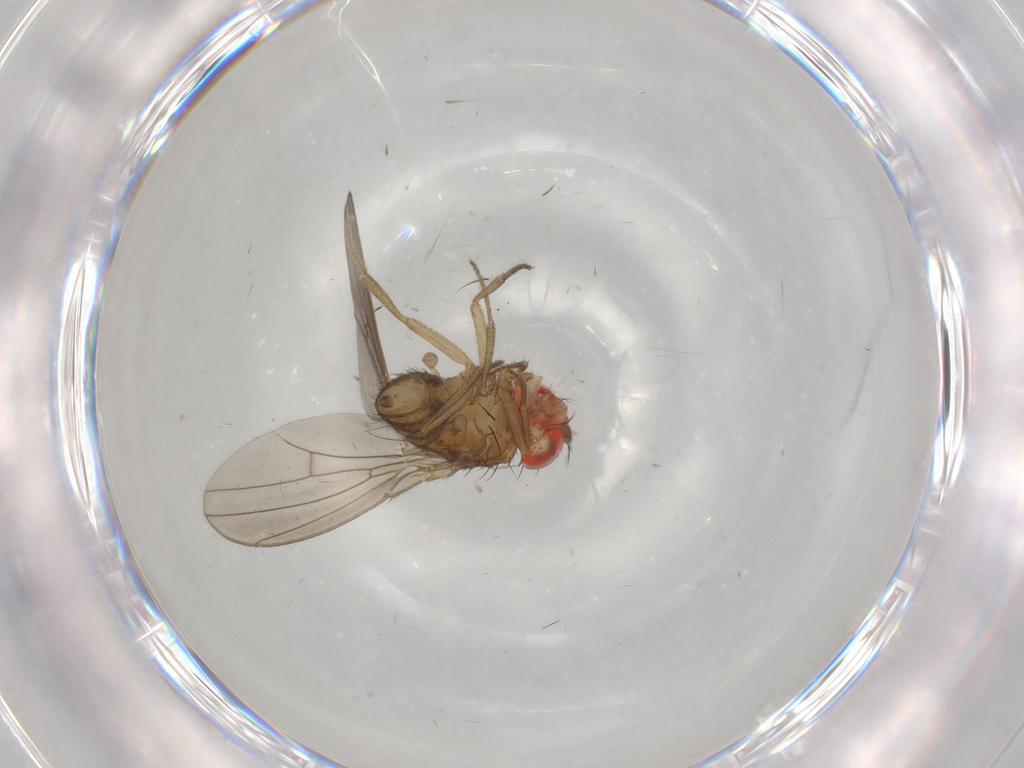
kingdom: Animalia
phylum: Arthropoda
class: Insecta
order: Diptera
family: Drosophilidae
